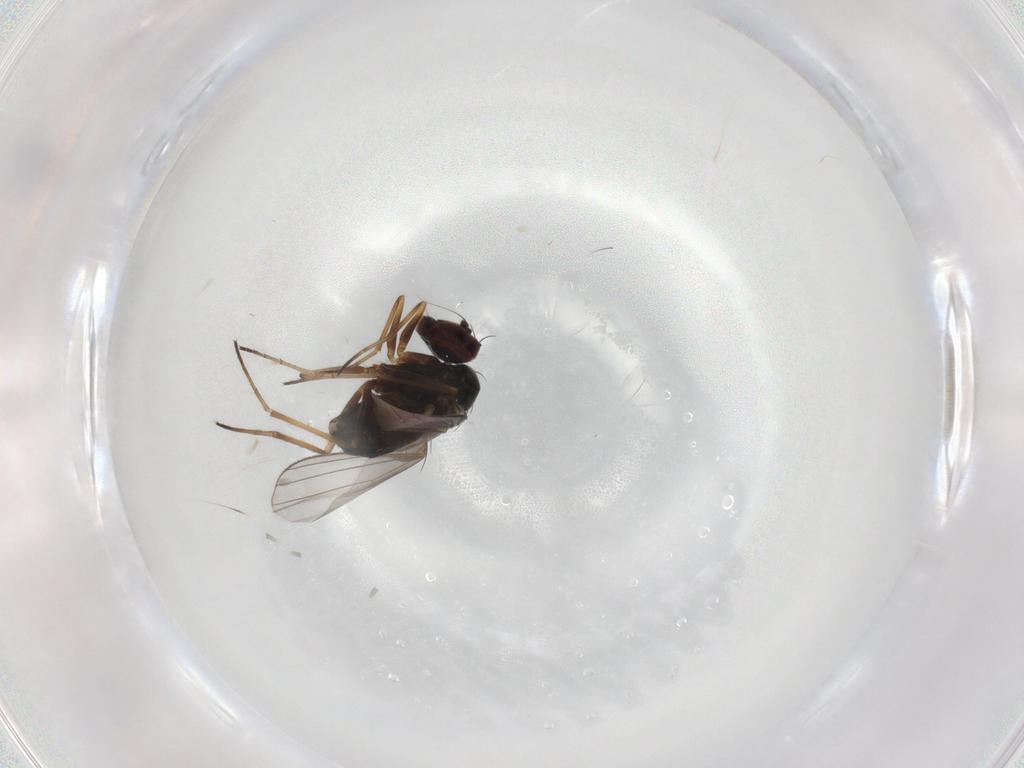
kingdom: Animalia
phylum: Arthropoda
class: Insecta
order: Diptera
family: Dolichopodidae
